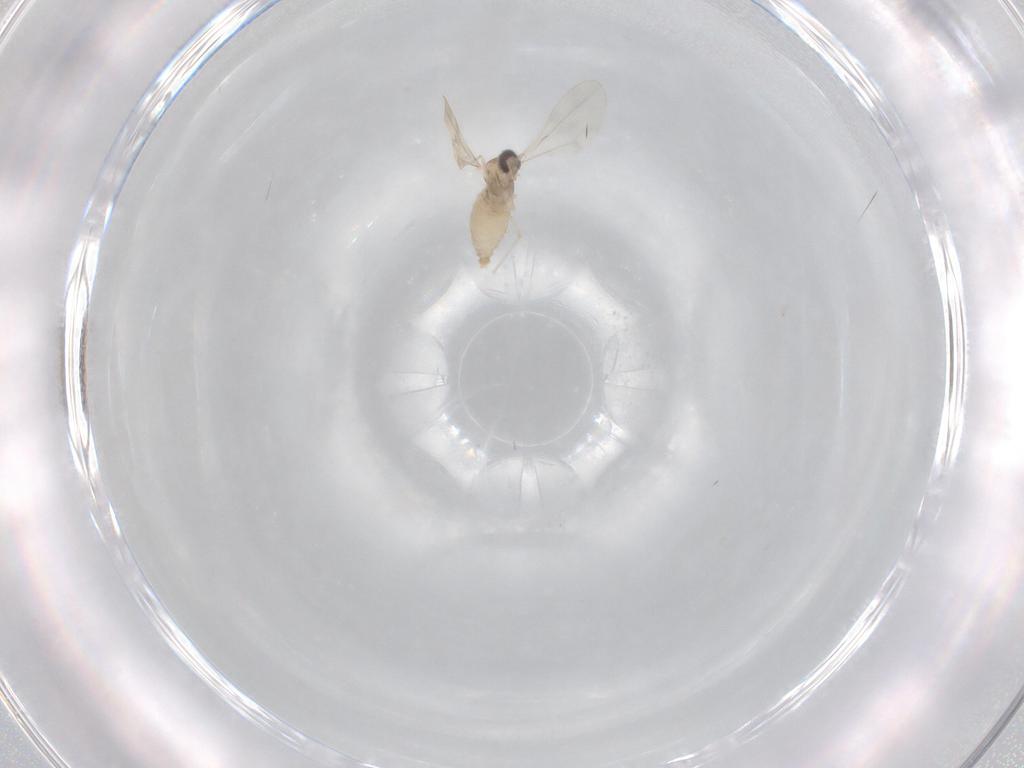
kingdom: Animalia
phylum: Arthropoda
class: Insecta
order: Diptera
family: Cecidomyiidae
